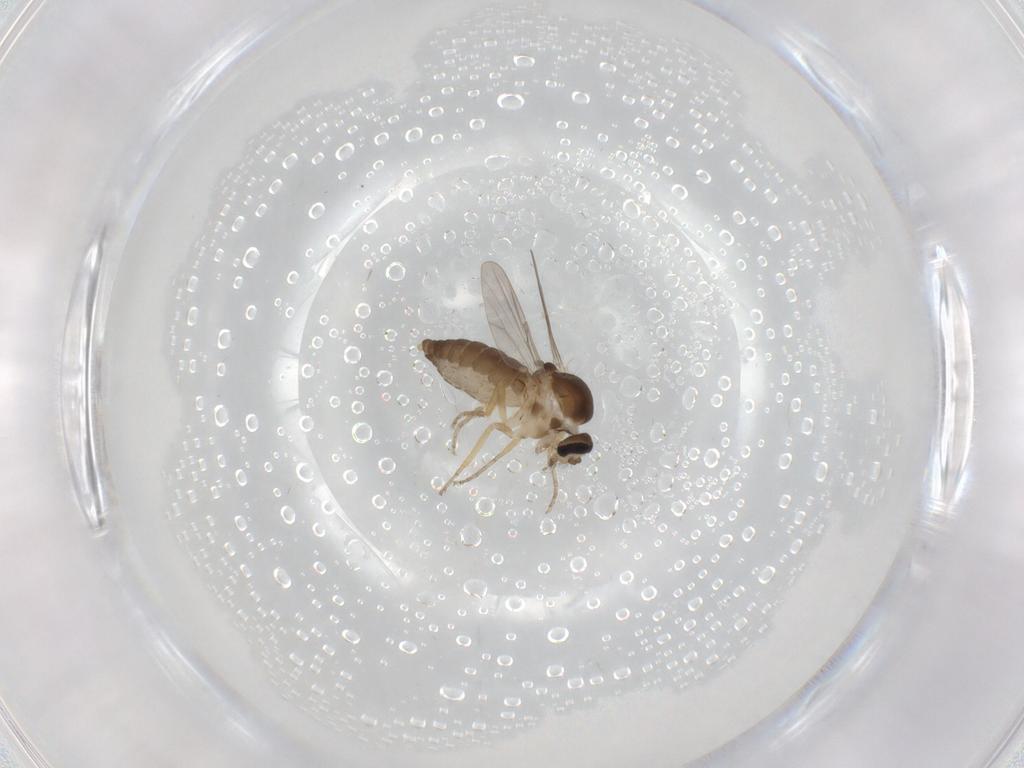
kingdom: Animalia
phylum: Arthropoda
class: Insecta
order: Diptera
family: Ceratopogonidae
